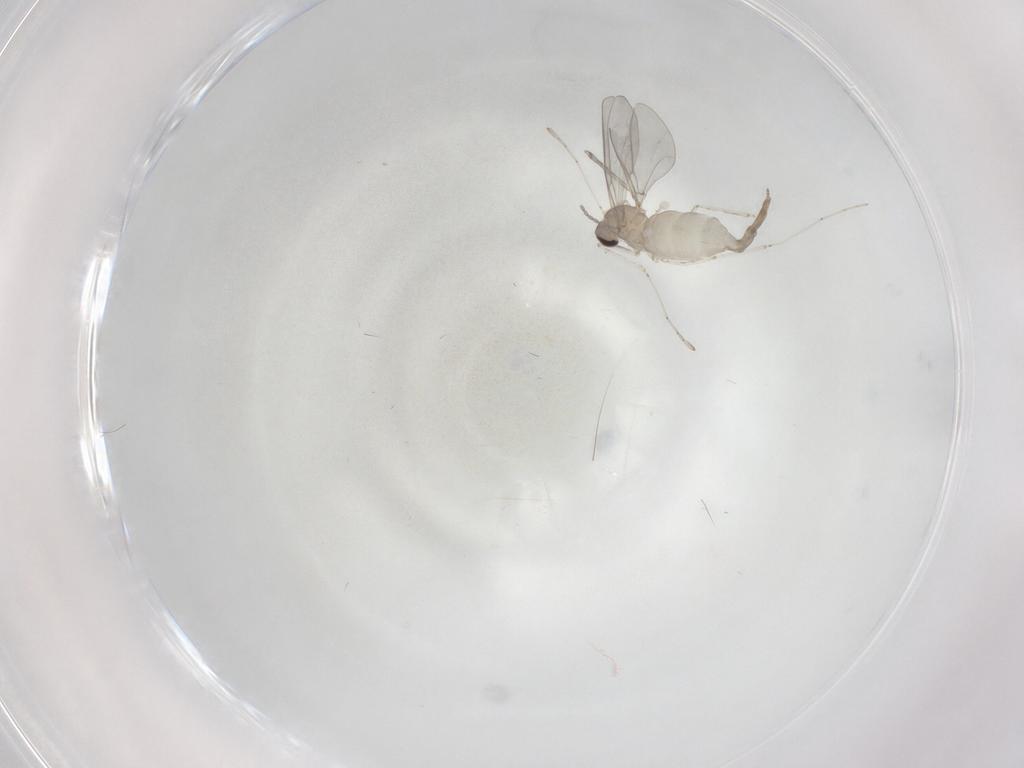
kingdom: Animalia
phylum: Arthropoda
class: Insecta
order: Diptera
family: Cecidomyiidae
